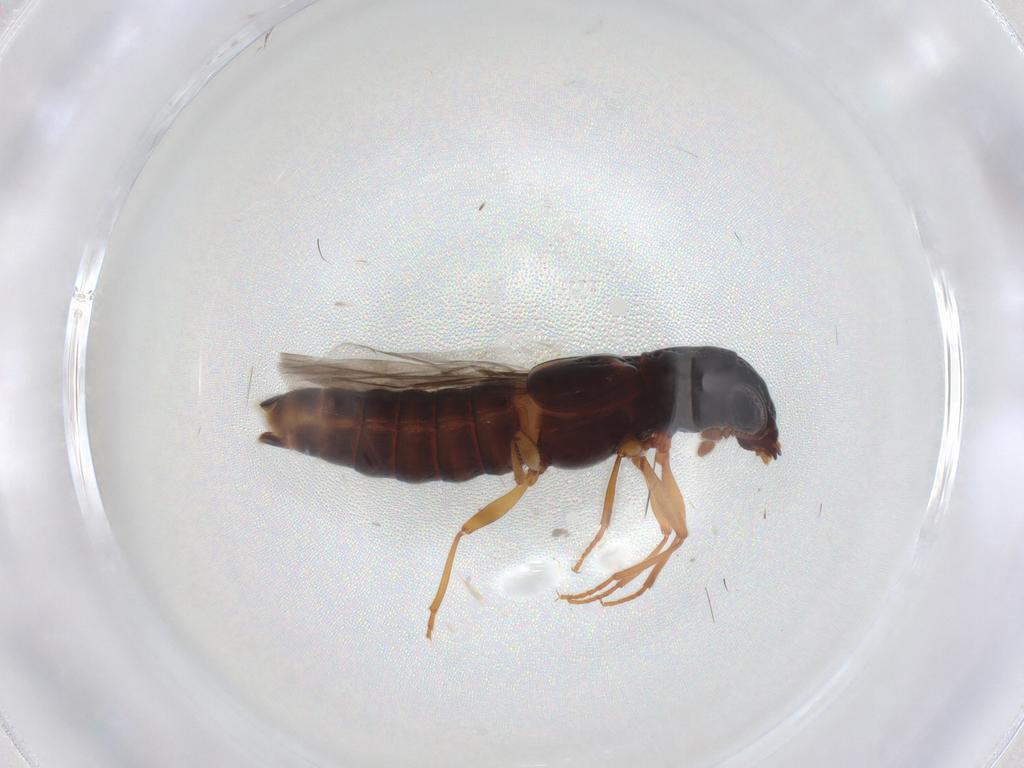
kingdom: Animalia
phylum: Arthropoda
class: Insecta
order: Coleoptera
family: Staphylinidae
